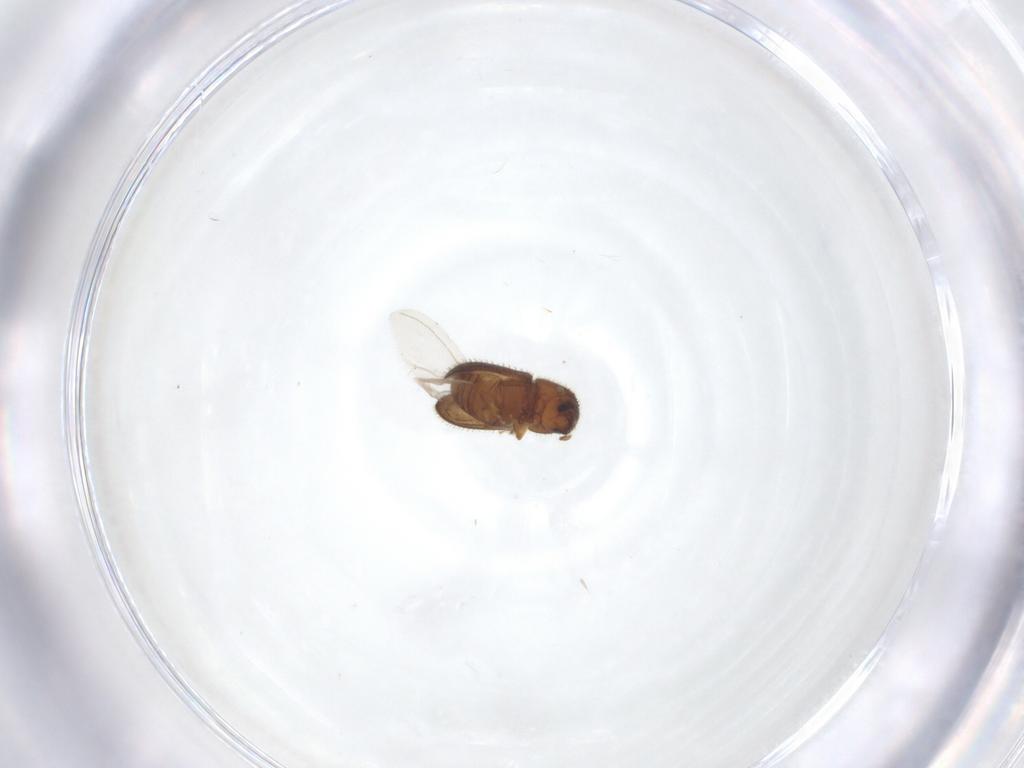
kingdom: Animalia
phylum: Arthropoda
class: Insecta
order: Coleoptera
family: Curculionidae
